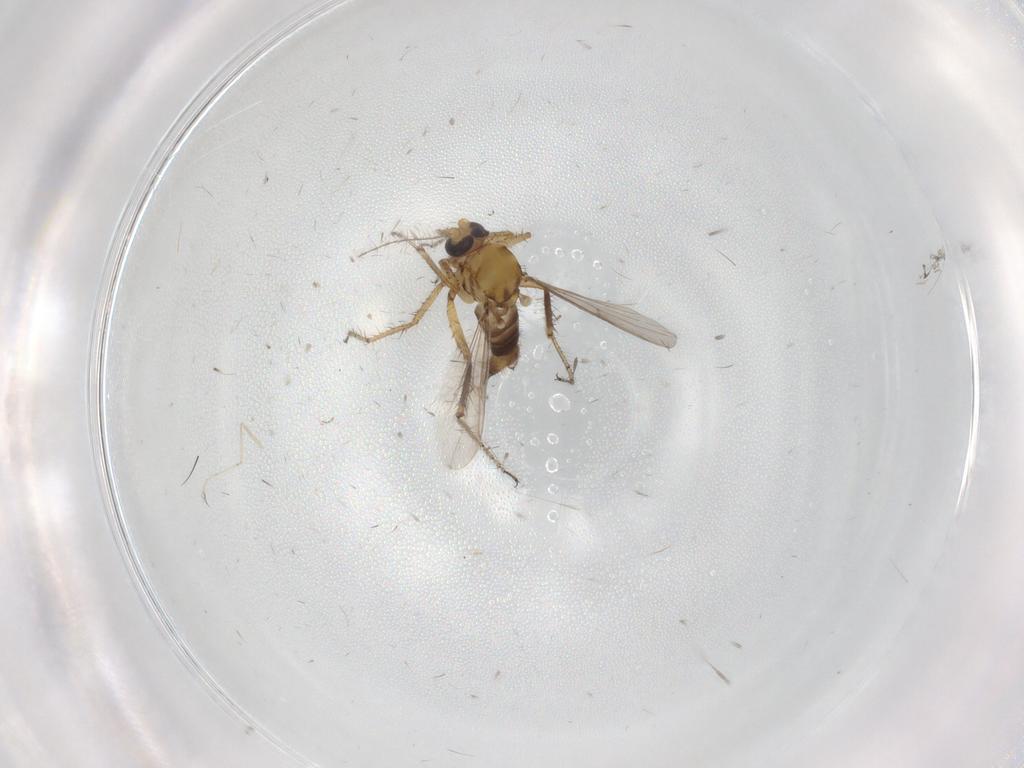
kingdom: Animalia
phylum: Arthropoda
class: Insecta
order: Diptera
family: Ceratopogonidae
